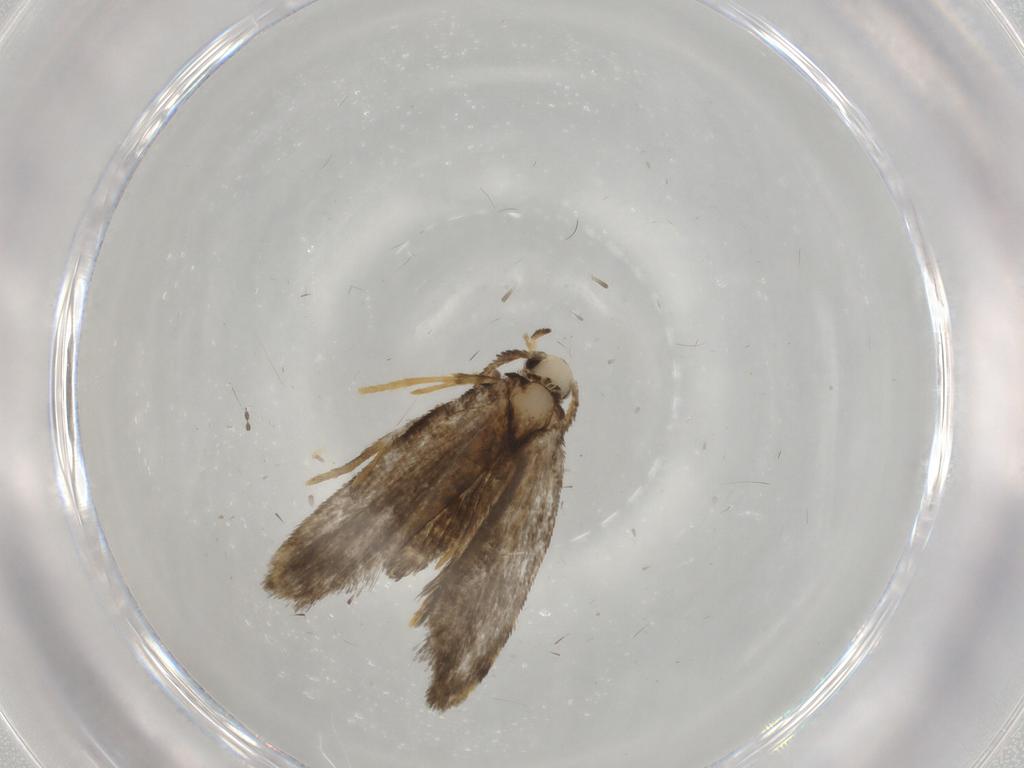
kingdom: Animalia
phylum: Arthropoda
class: Insecta
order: Lepidoptera
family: Psychidae
